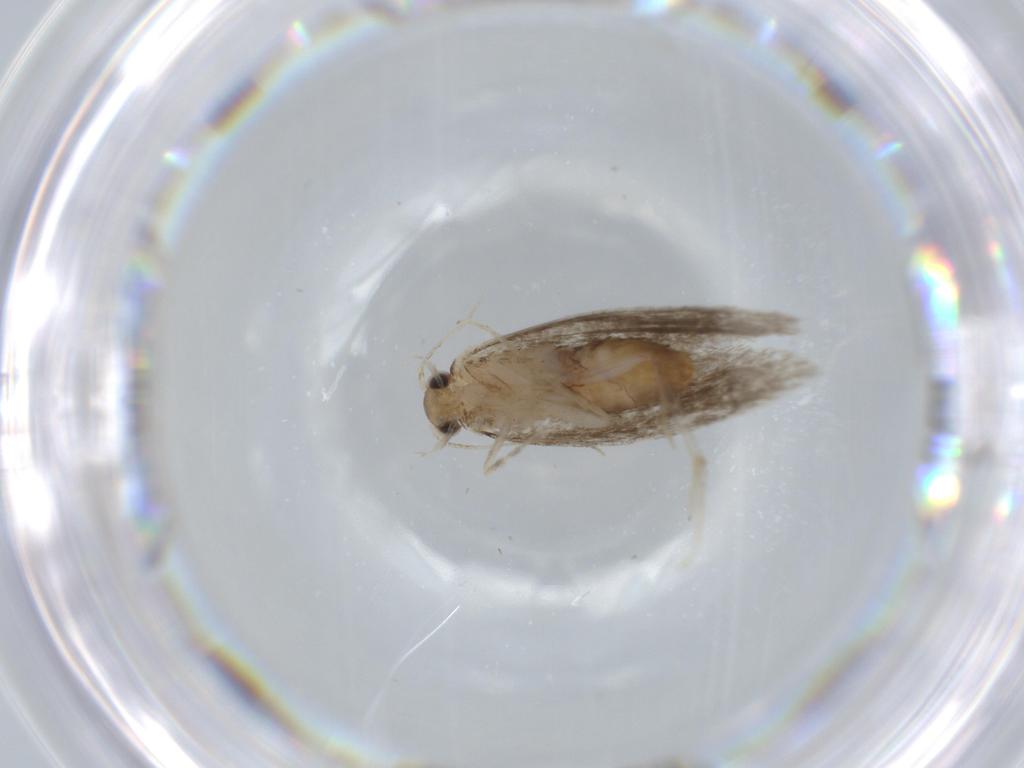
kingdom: Animalia
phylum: Arthropoda
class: Insecta
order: Lepidoptera
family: Tineidae
